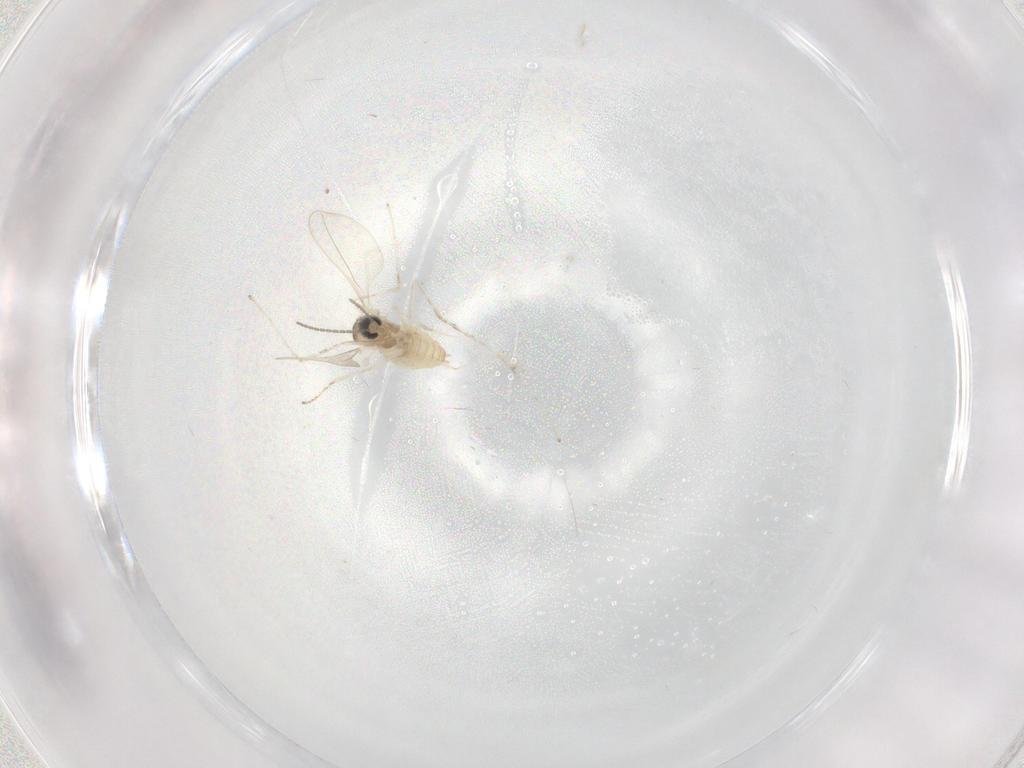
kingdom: Animalia
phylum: Arthropoda
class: Insecta
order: Diptera
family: Cecidomyiidae
